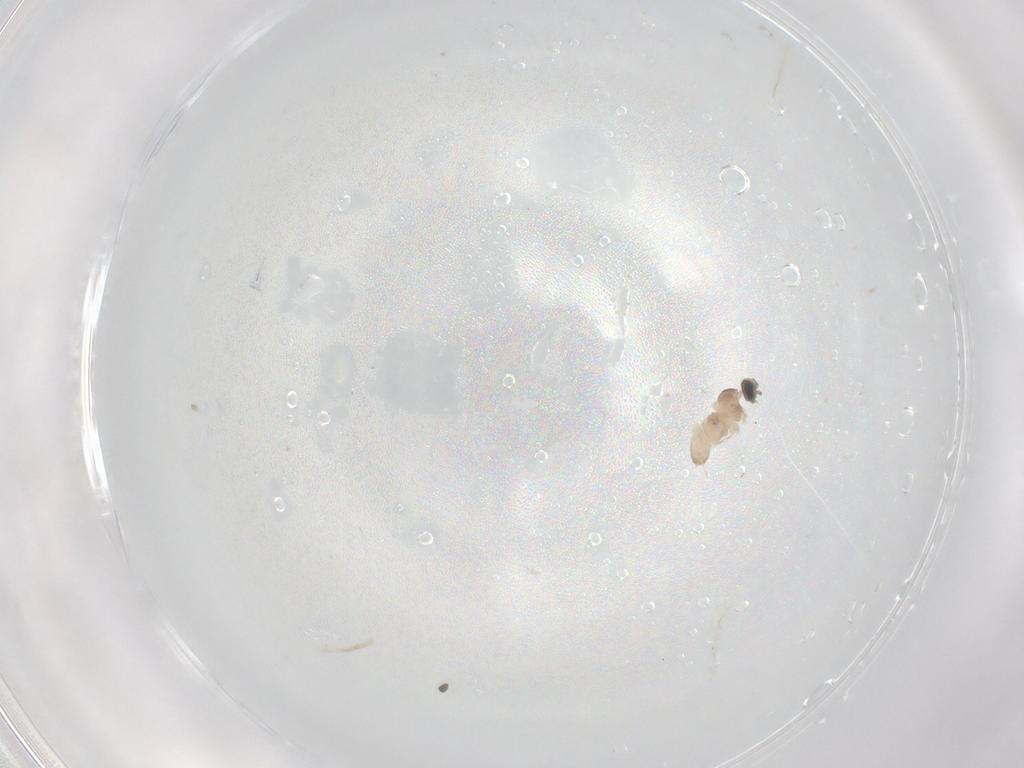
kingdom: Animalia
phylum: Arthropoda
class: Insecta
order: Diptera
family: Cecidomyiidae
